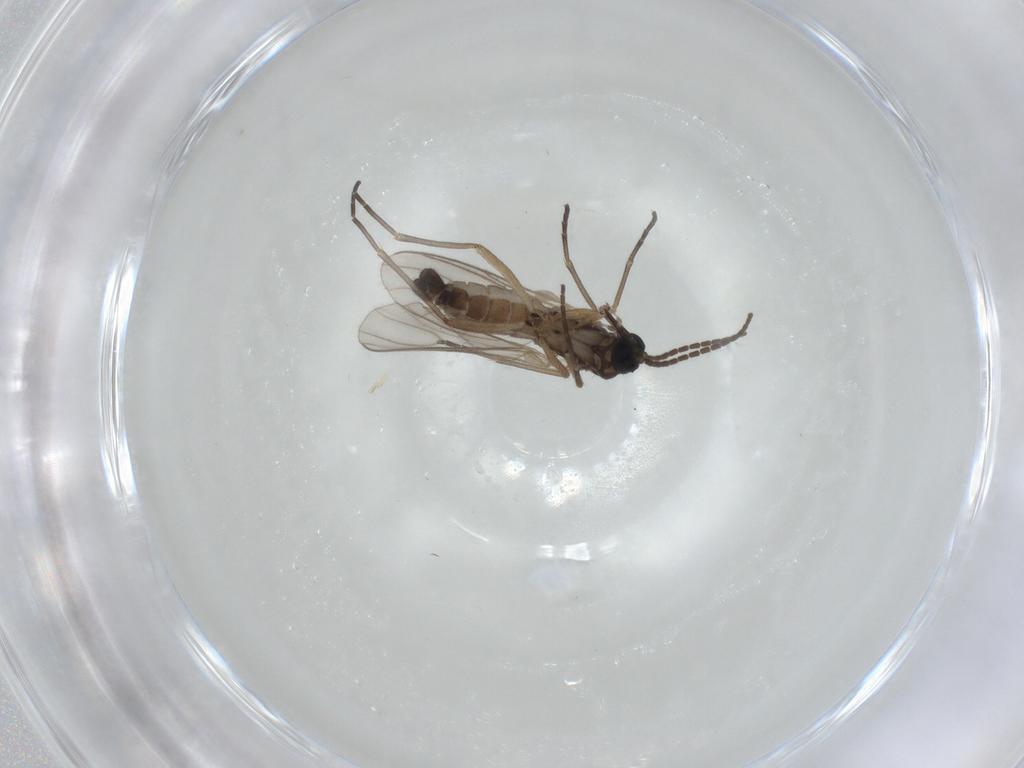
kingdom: Animalia
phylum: Arthropoda
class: Insecta
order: Diptera
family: Sciaridae
